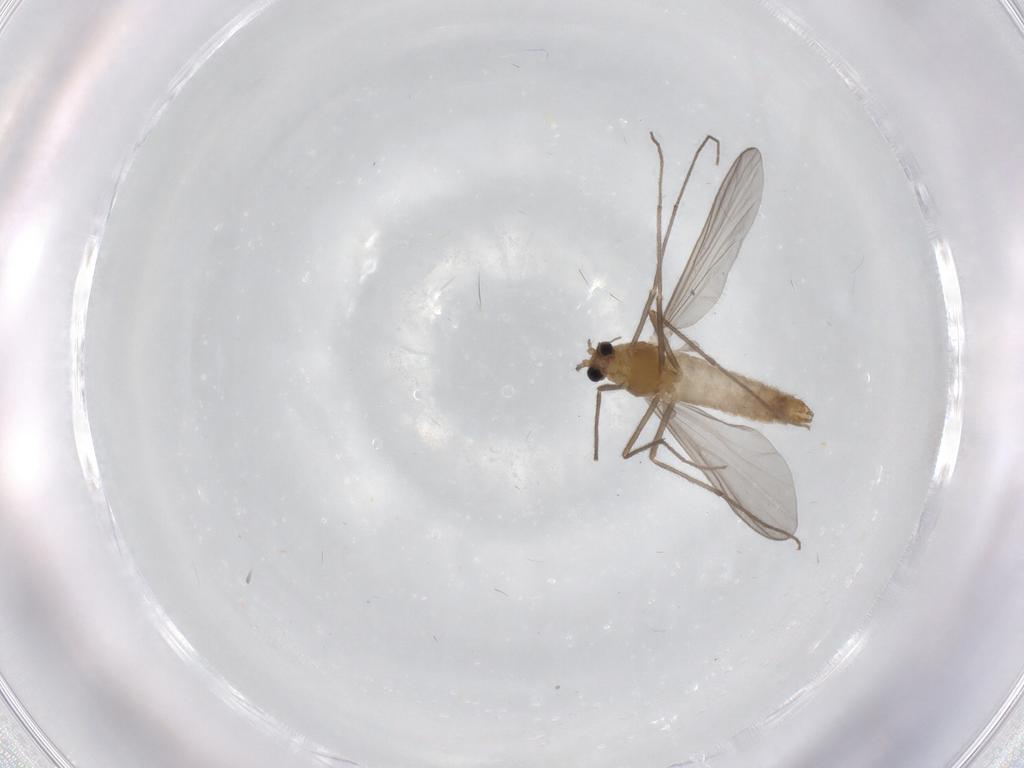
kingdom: Animalia
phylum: Arthropoda
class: Insecta
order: Diptera
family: Chironomidae
